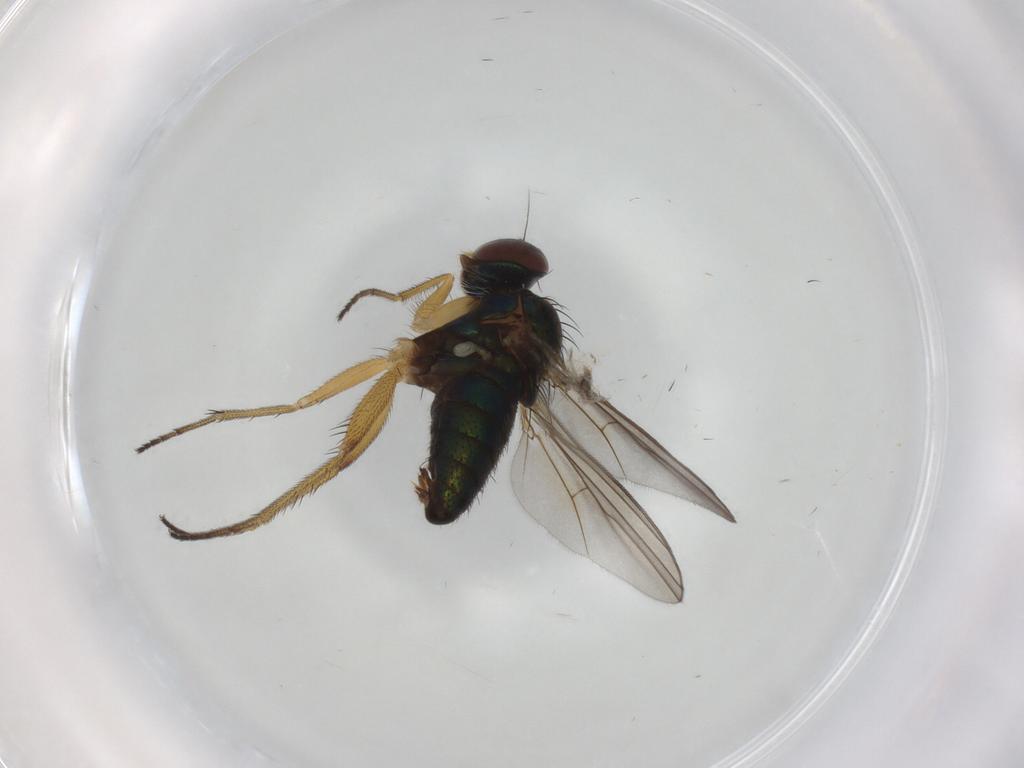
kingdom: Animalia
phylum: Arthropoda
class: Insecta
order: Diptera
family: Dolichopodidae
